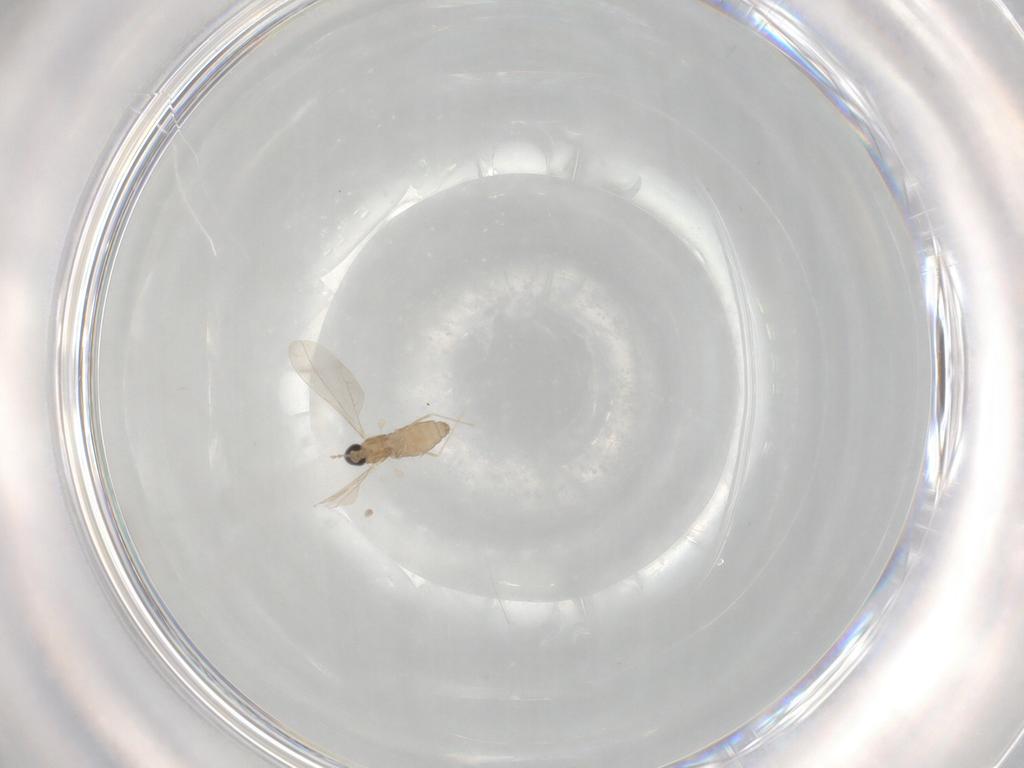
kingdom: Animalia
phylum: Arthropoda
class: Insecta
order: Diptera
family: Tephritidae
